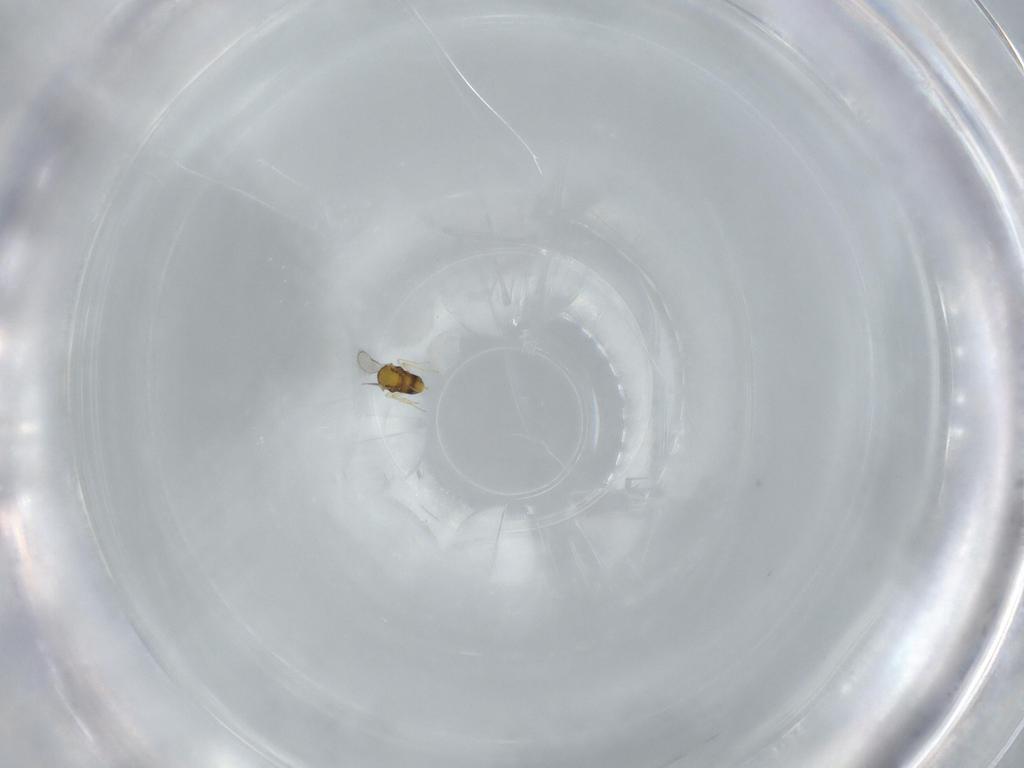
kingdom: Animalia
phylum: Arthropoda
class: Insecta
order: Hymenoptera
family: Aphelinidae
